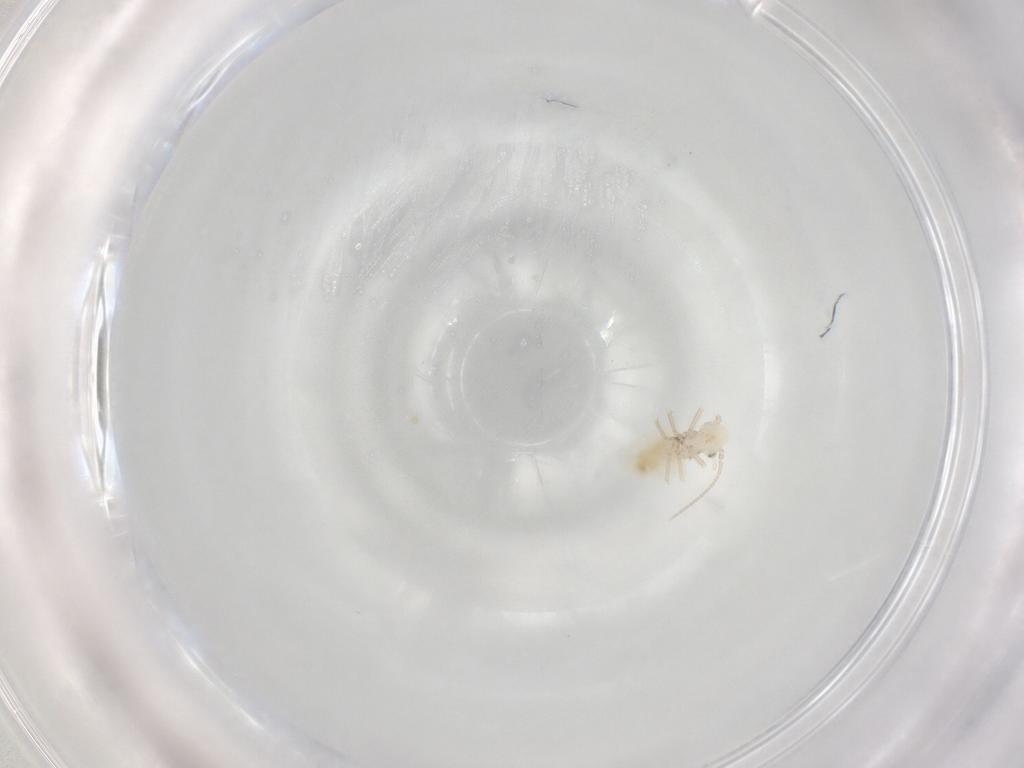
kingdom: Animalia
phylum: Arthropoda
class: Insecta
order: Psocodea
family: Caeciliusidae
